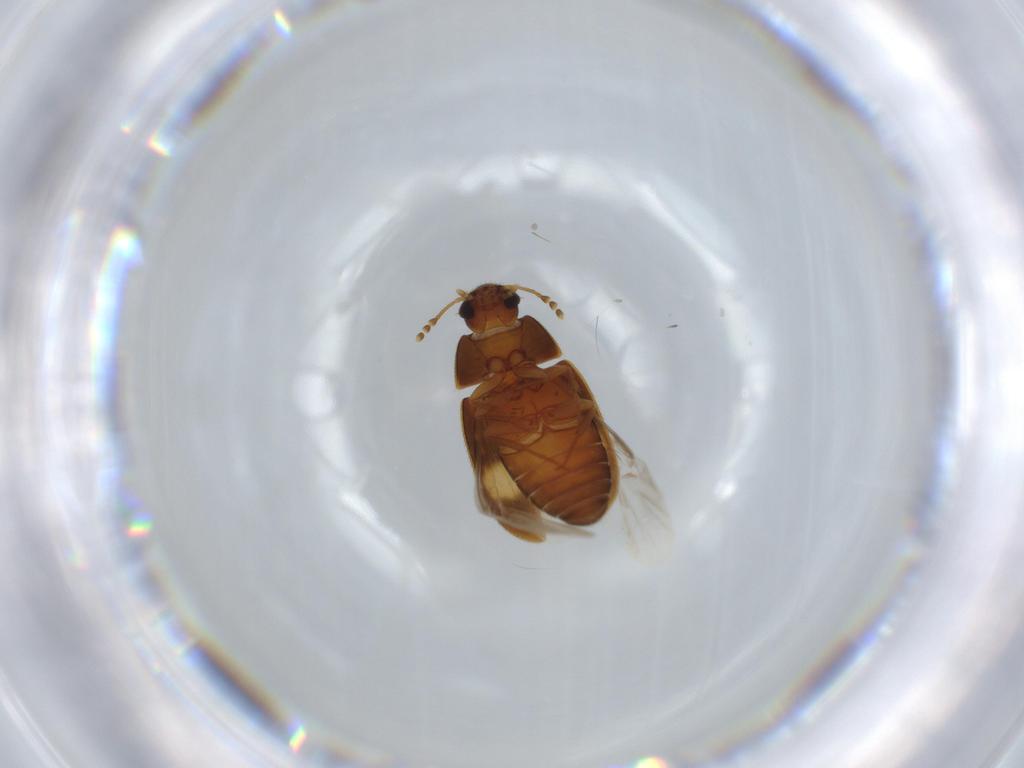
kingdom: Animalia
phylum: Arthropoda
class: Insecta
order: Coleoptera
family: Mycetophagidae
